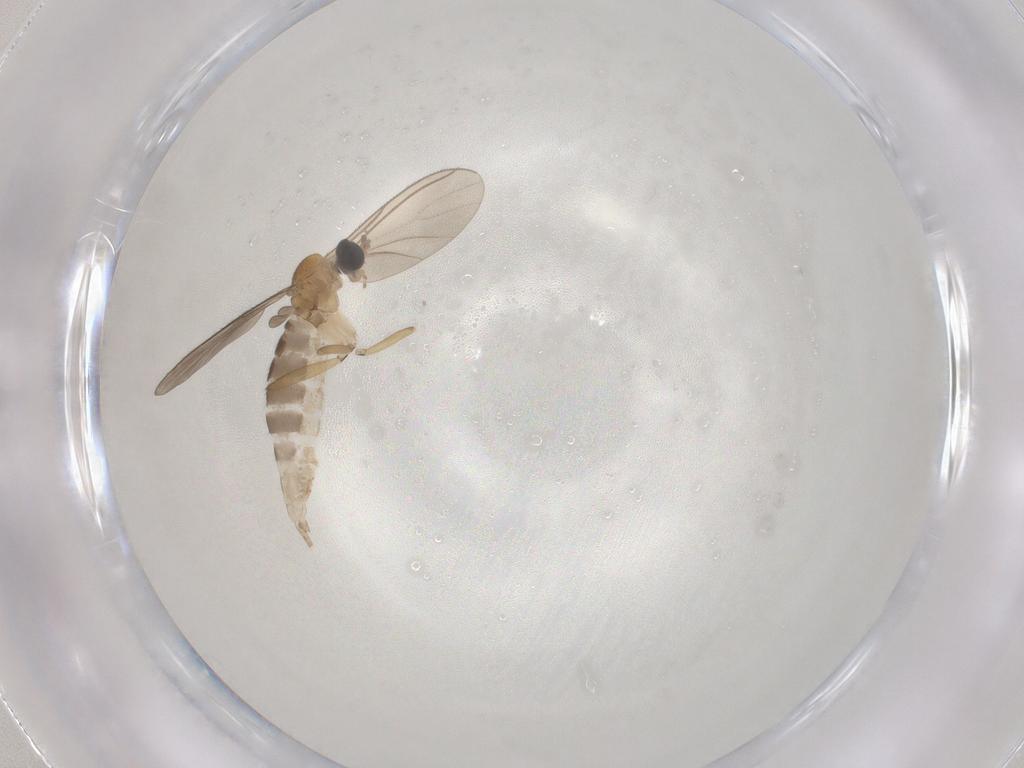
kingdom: Animalia
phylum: Arthropoda
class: Insecta
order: Diptera
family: Sciaridae
